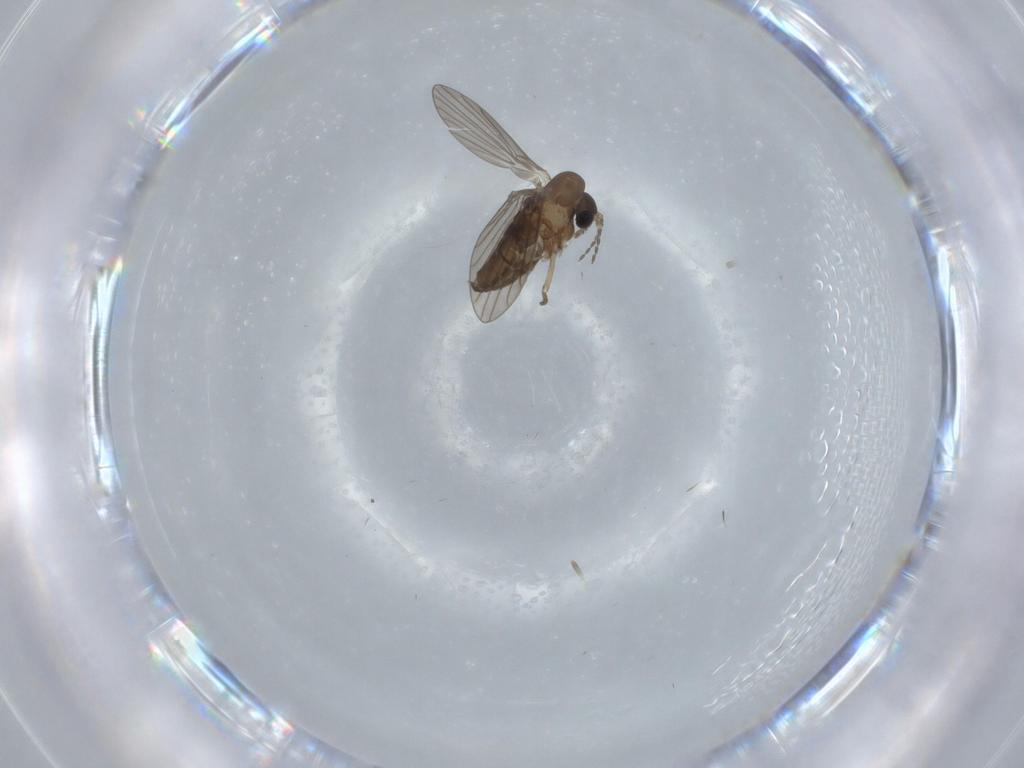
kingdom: Animalia
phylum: Arthropoda
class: Insecta
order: Diptera
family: Psychodidae
